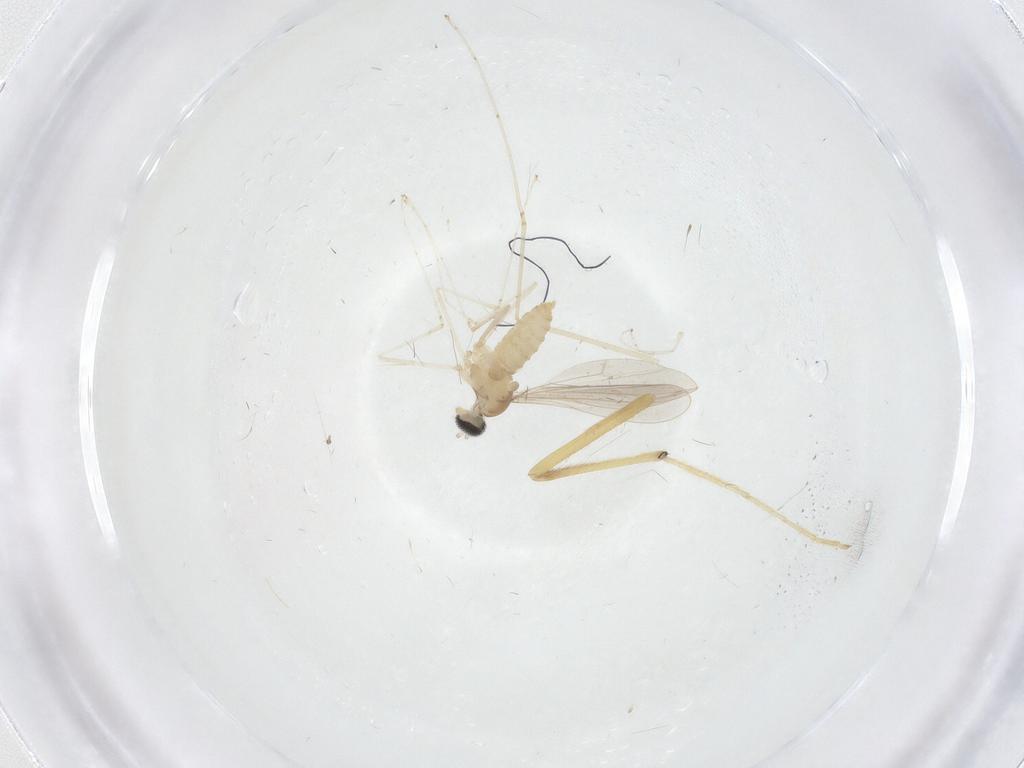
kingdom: Animalia
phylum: Arthropoda
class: Insecta
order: Diptera
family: Cecidomyiidae
